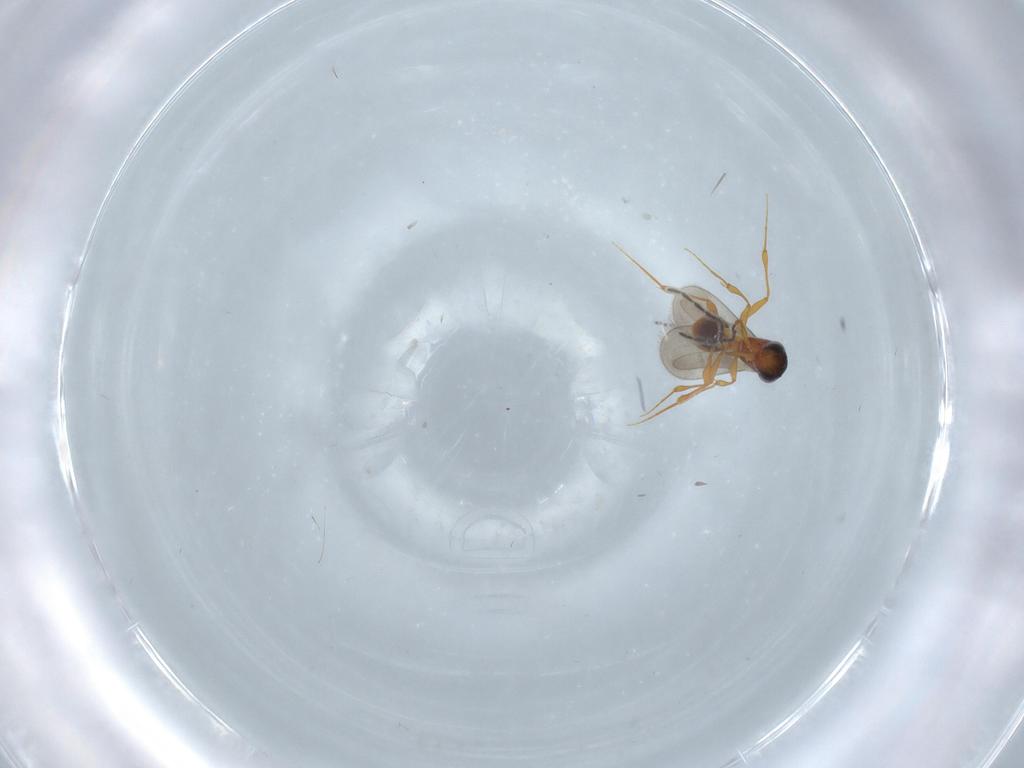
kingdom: Animalia
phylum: Arthropoda
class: Insecta
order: Hymenoptera
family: Platygastridae
